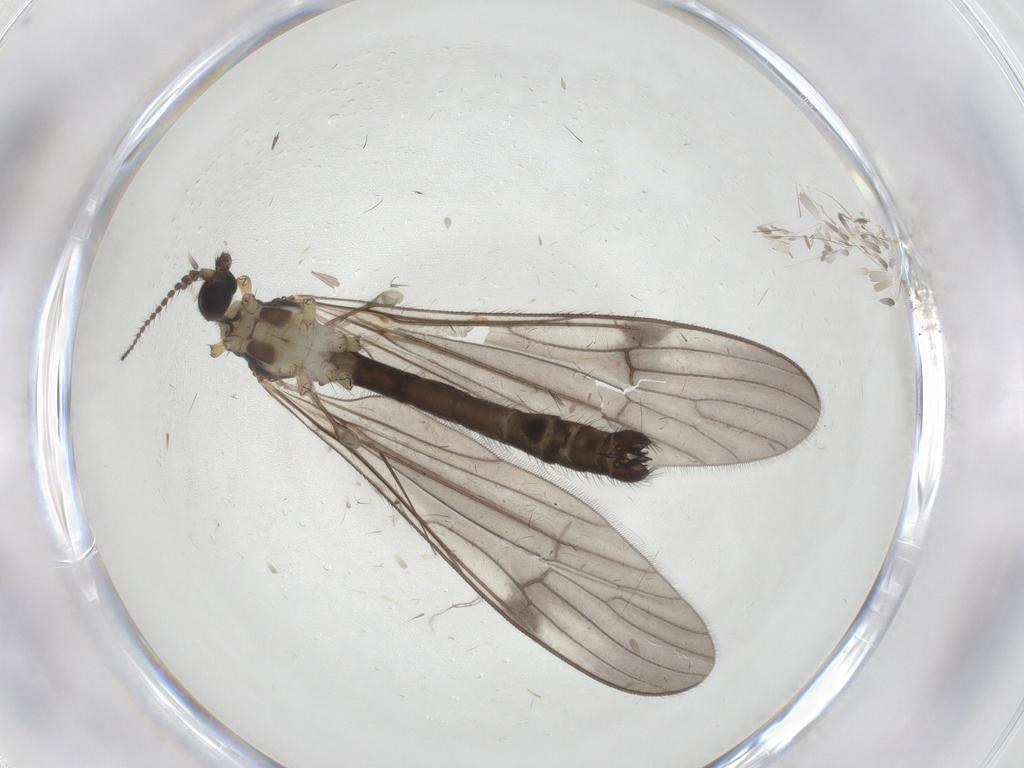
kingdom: Animalia
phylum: Arthropoda
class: Insecta
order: Diptera
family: Limoniidae
